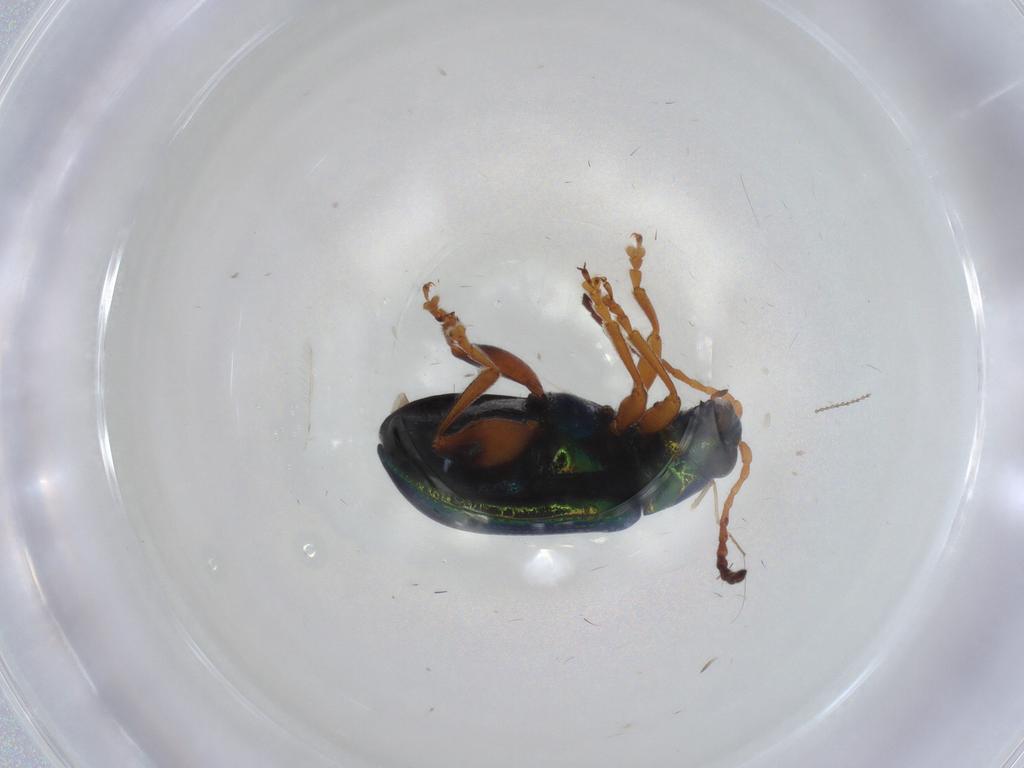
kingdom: Animalia
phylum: Arthropoda
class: Insecta
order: Coleoptera
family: Chrysomelidae
